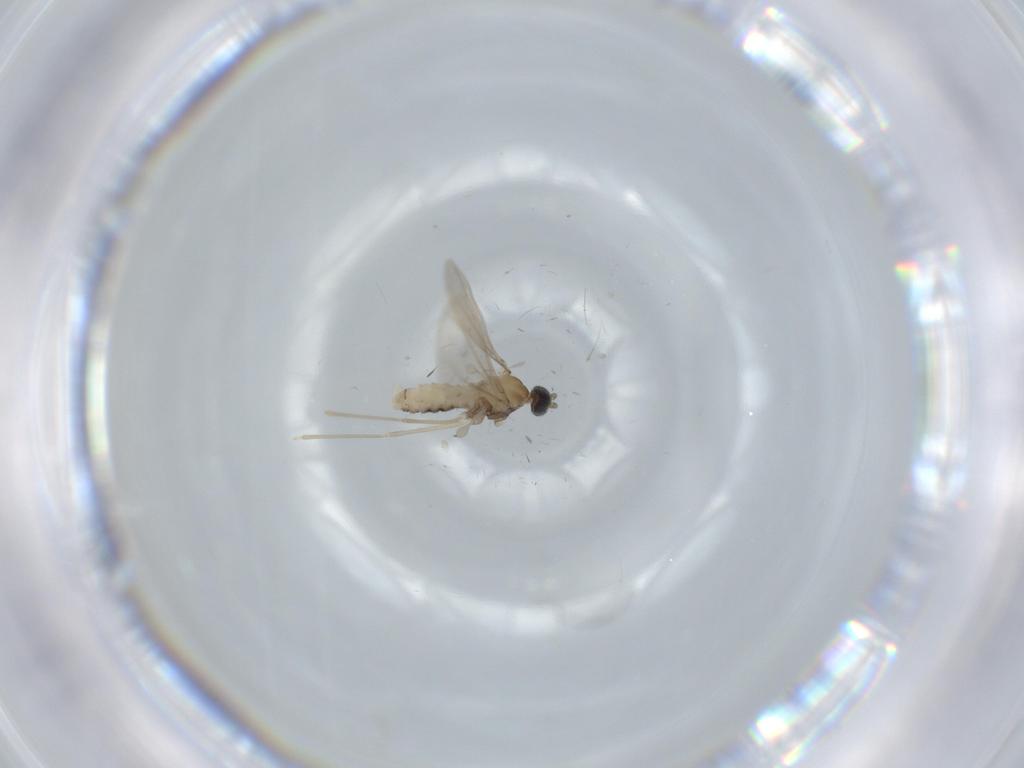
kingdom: Animalia
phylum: Arthropoda
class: Insecta
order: Diptera
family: Cecidomyiidae
